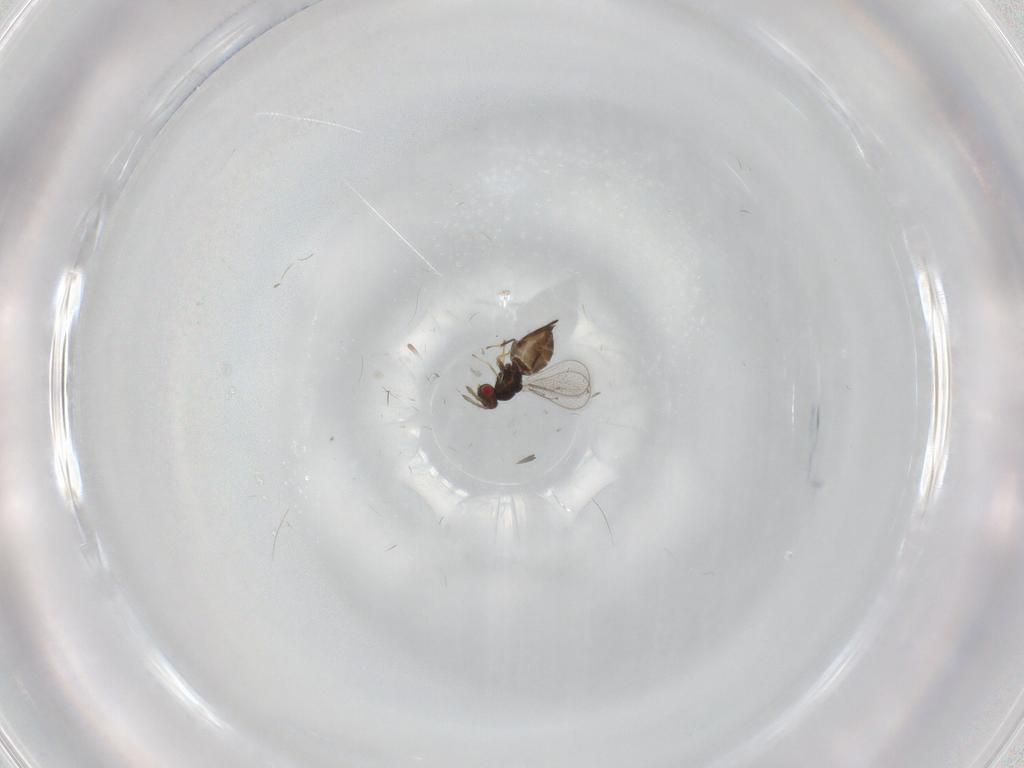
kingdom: Animalia
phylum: Arthropoda
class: Insecta
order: Hymenoptera
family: Eulophidae
